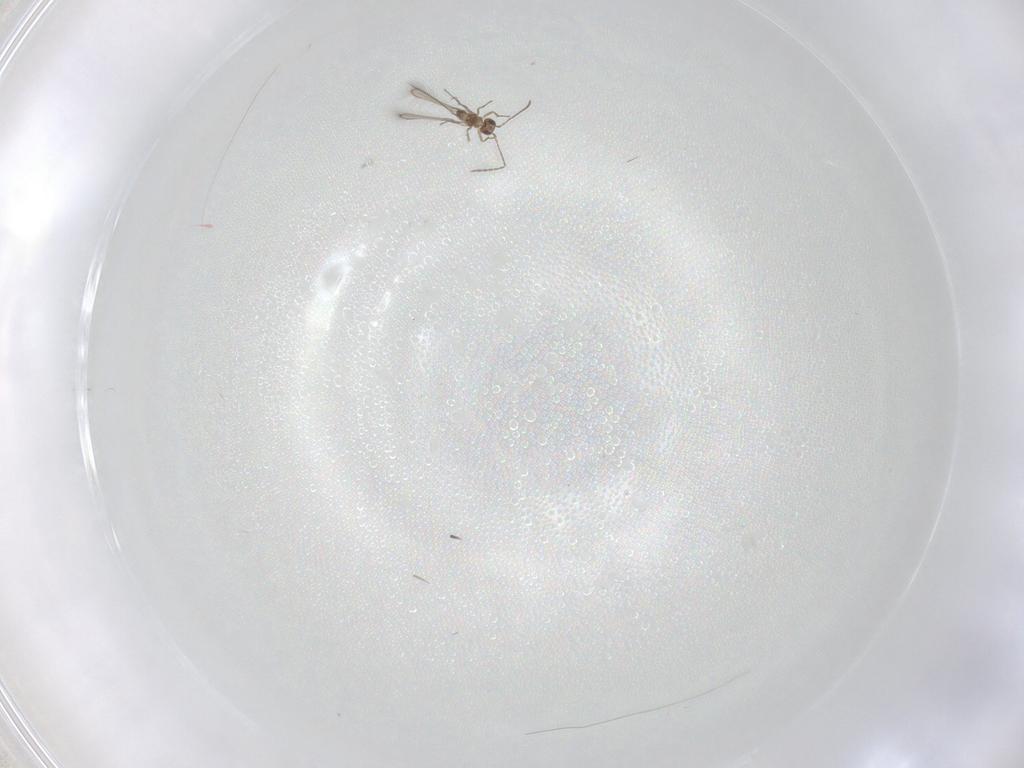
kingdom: Animalia
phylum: Arthropoda
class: Insecta
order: Hymenoptera
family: Mymaridae
